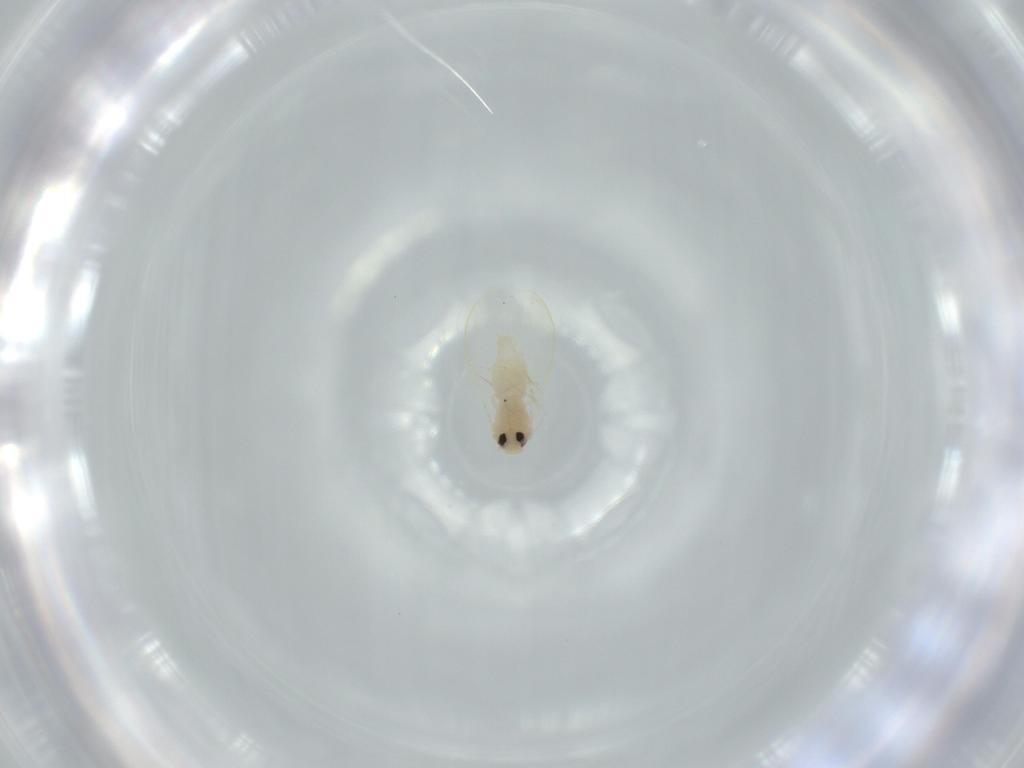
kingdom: Animalia
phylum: Arthropoda
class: Insecta
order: Hemiptera
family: Aleyrodidae
